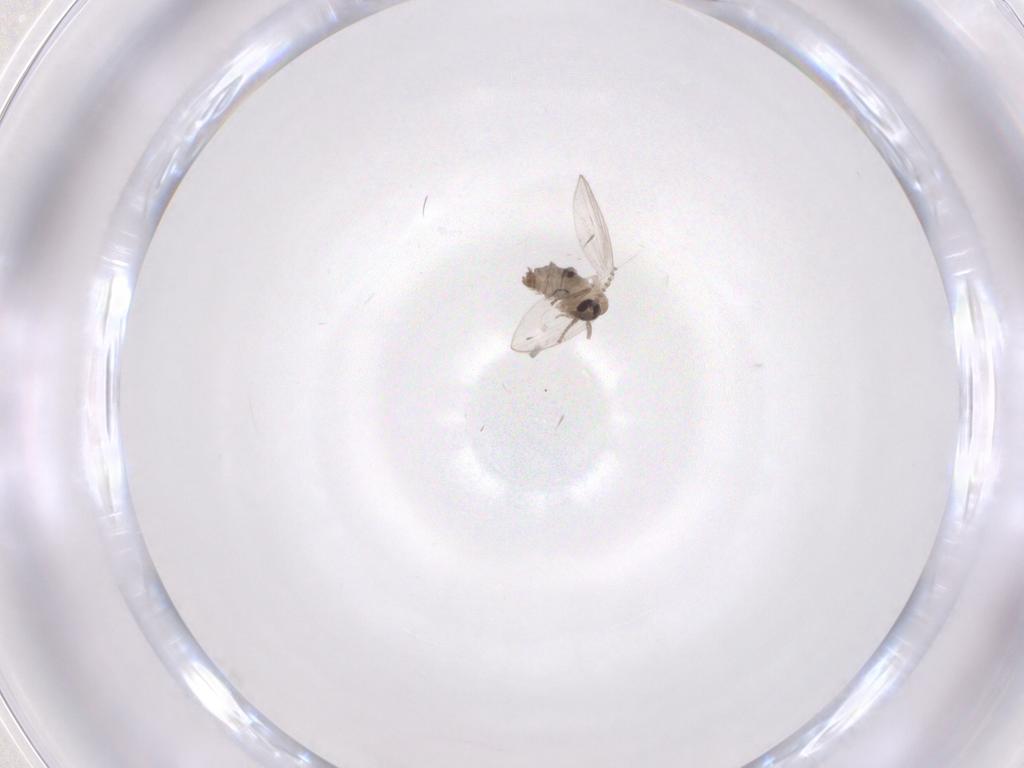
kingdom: Animalia
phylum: Arthropoda
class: Insecta
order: Diptera
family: Psychodidae
